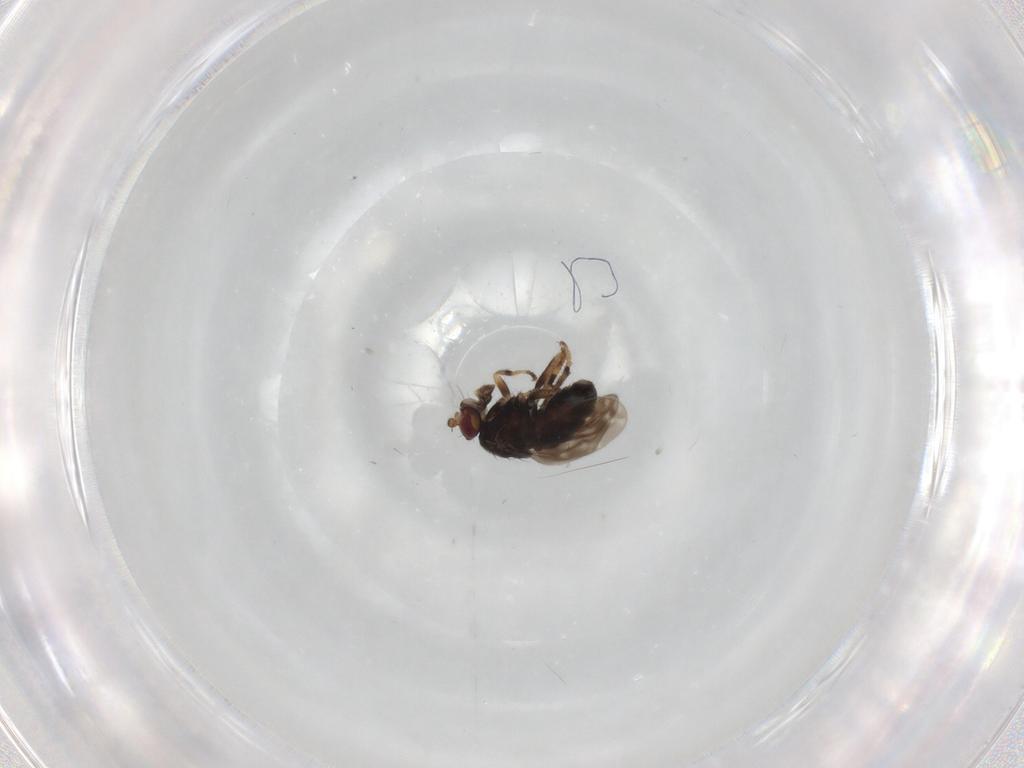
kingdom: Animalia
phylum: Arthropoda
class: Insecta
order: Diptera
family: Sphaeroceridae
